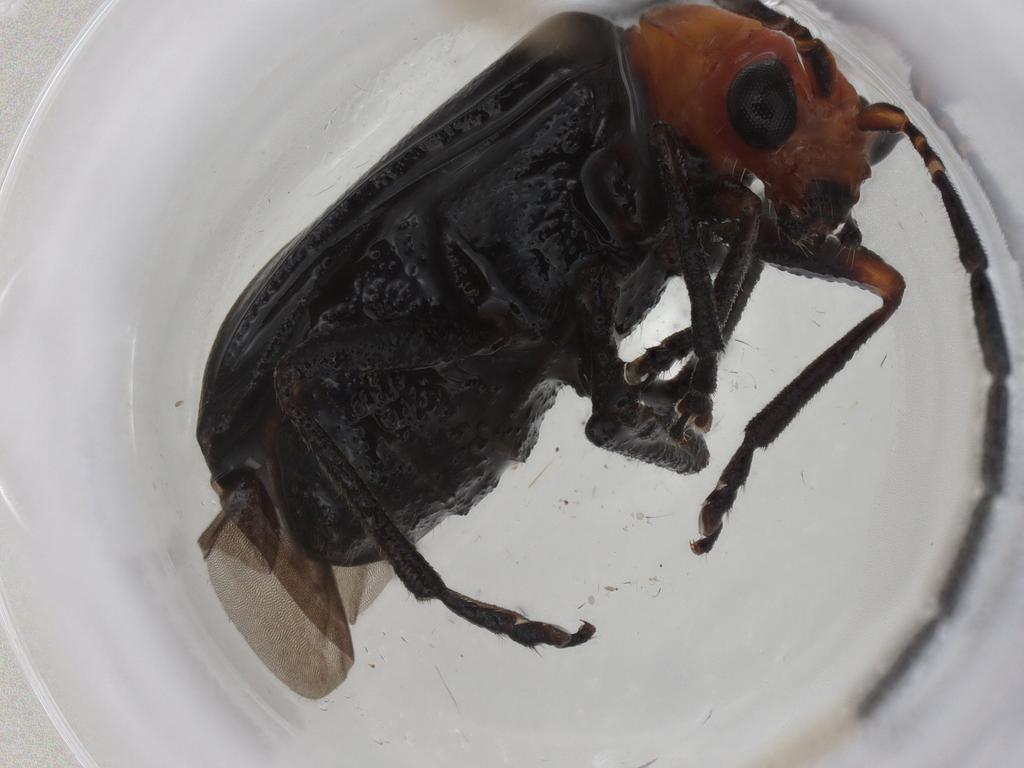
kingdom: Animalia
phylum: Arthropoda
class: Insecta
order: Coleoptera
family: Chrysomelidae
